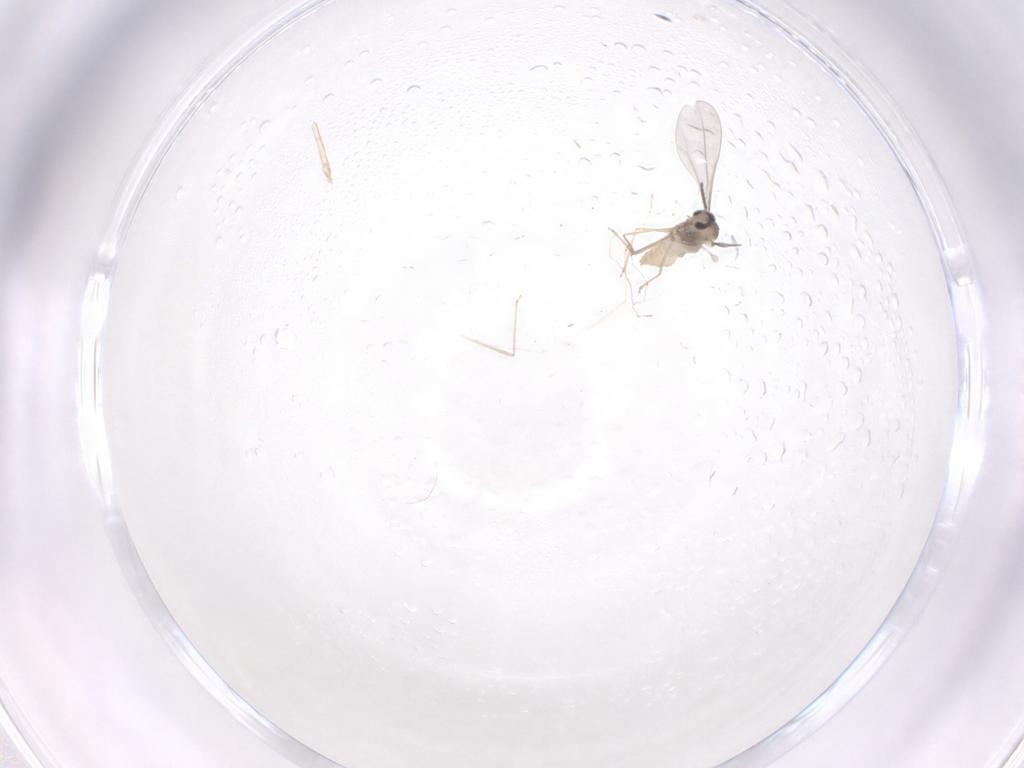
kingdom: Animalia
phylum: Arthropoda
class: Insecta
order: Diptera
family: Cecidomyiidae
